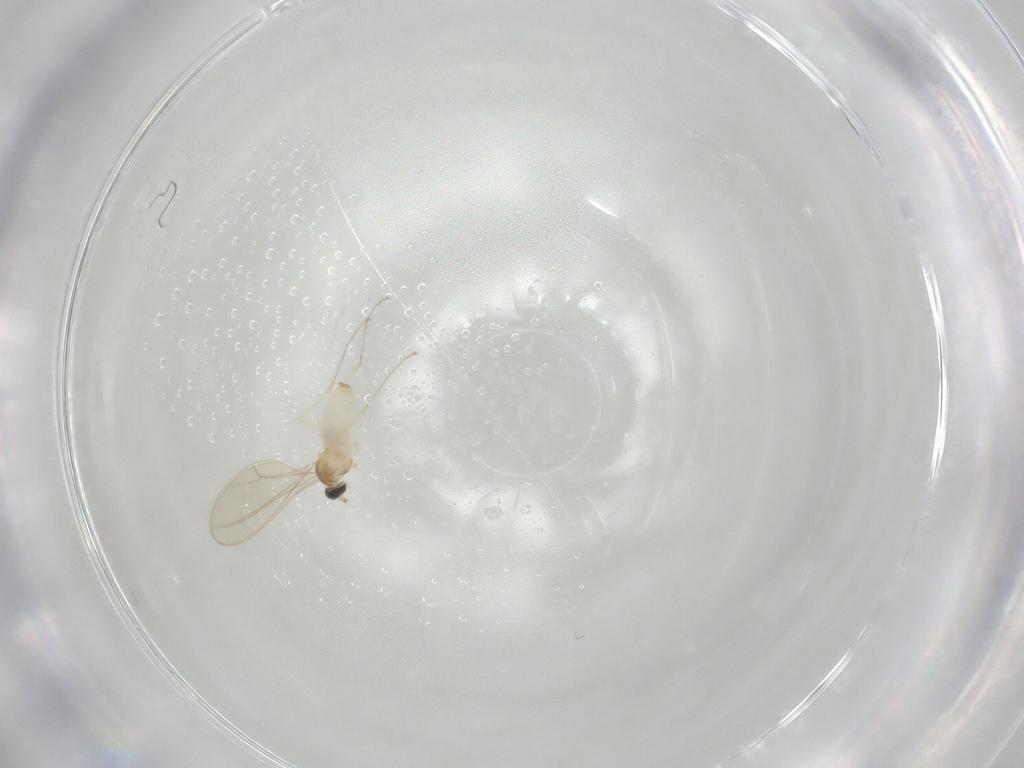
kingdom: Animalia
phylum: Arthropoda
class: Insecta
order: Diptera
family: Cecidomyiidae
